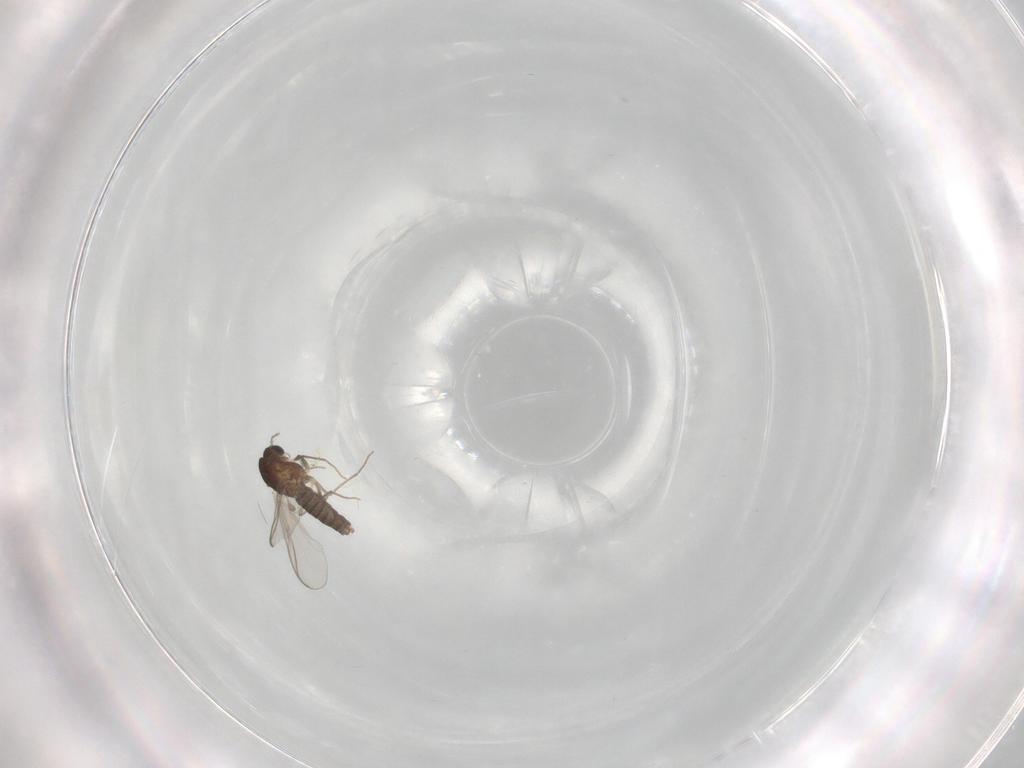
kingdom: Animalia
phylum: Arthropoda
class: Insecta
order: Diptera
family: Chironomidae
